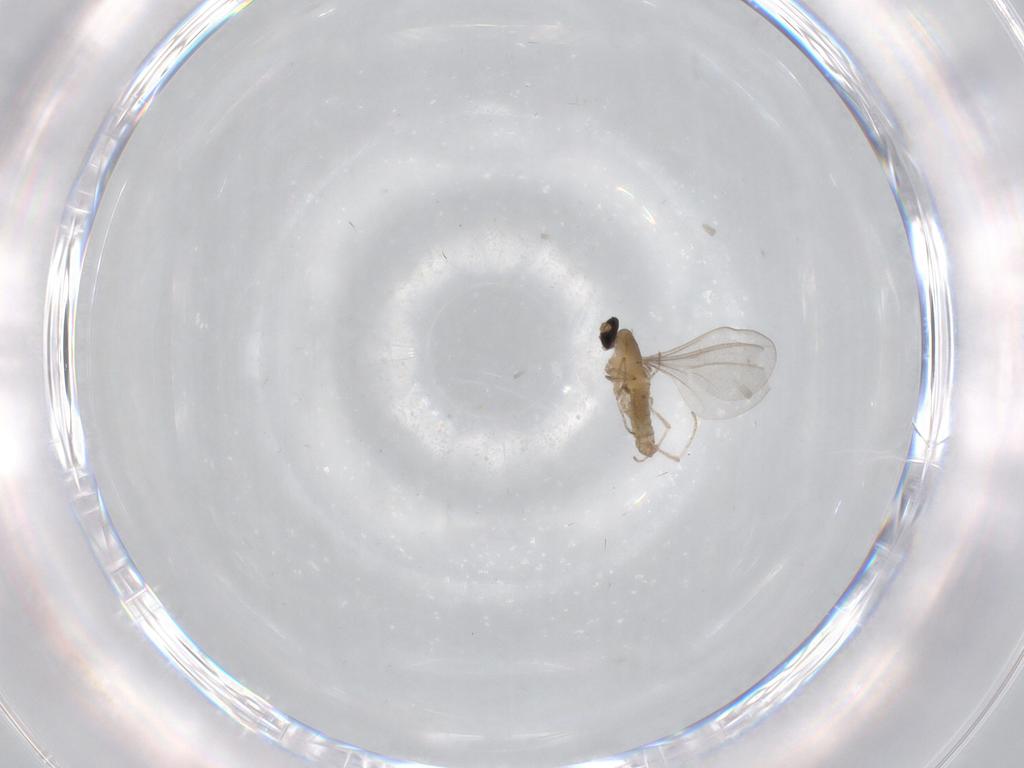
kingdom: Animalia
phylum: Arthropoda
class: Insecta
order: Diptera
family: Sciaridae
